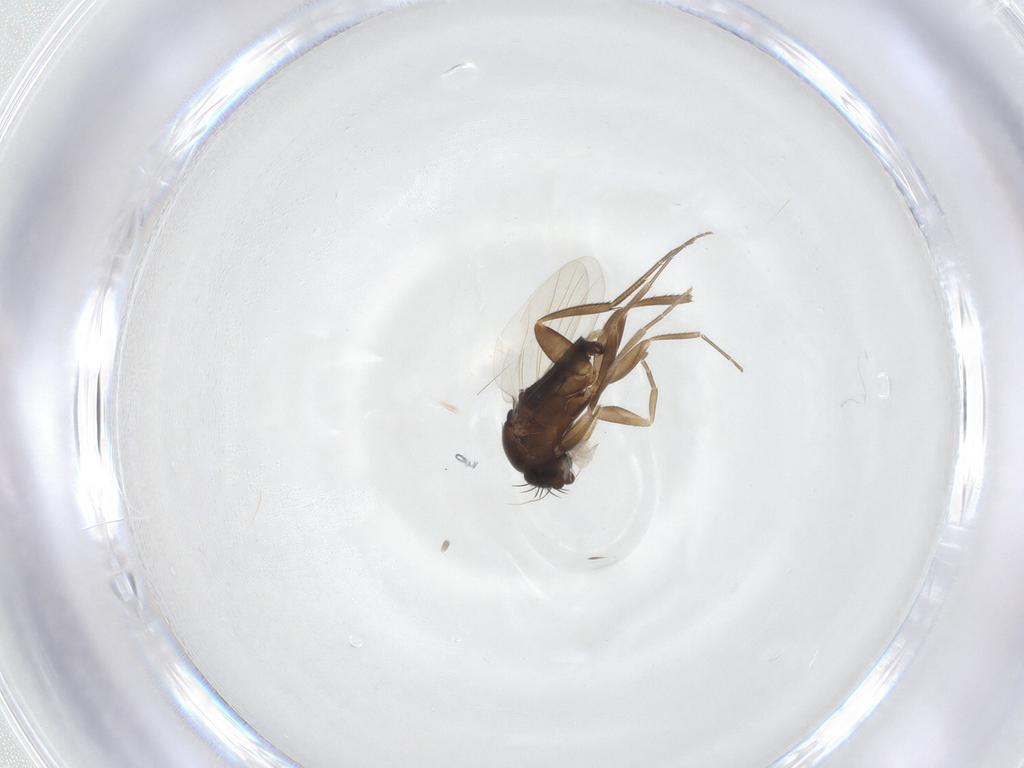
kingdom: Animalia
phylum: Arthropoda
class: Insecta
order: Diptera
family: Phoridae
